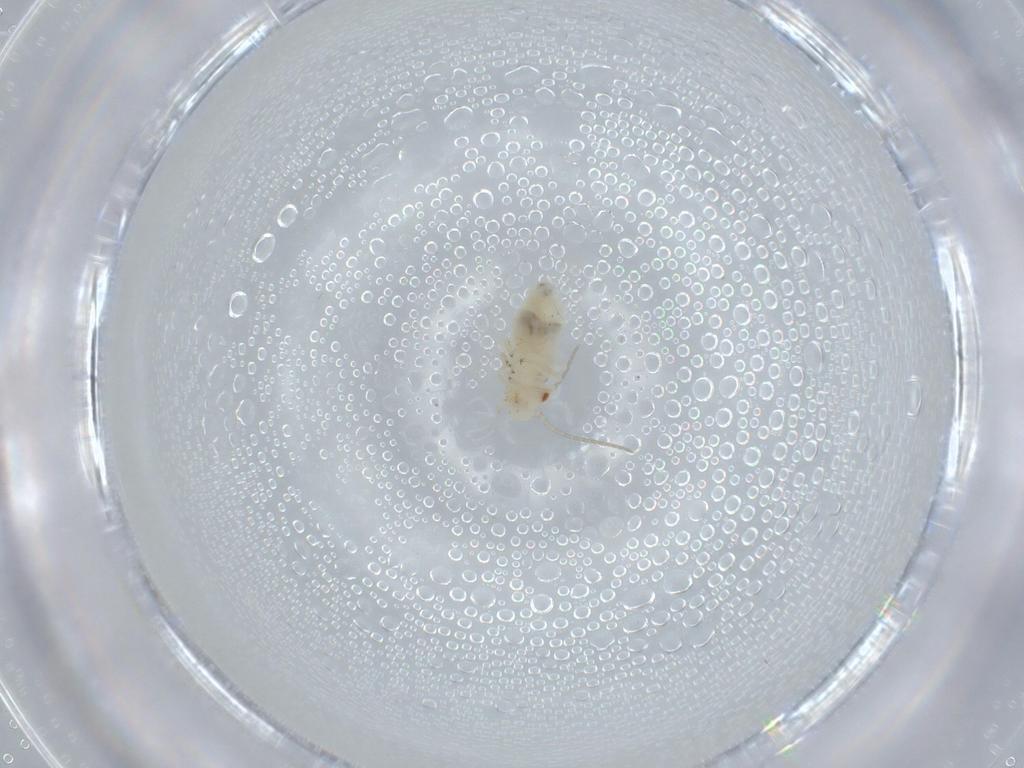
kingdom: Animalia
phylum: Arthropoda
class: Insecta
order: Psocodea
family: Caeciliusidae
